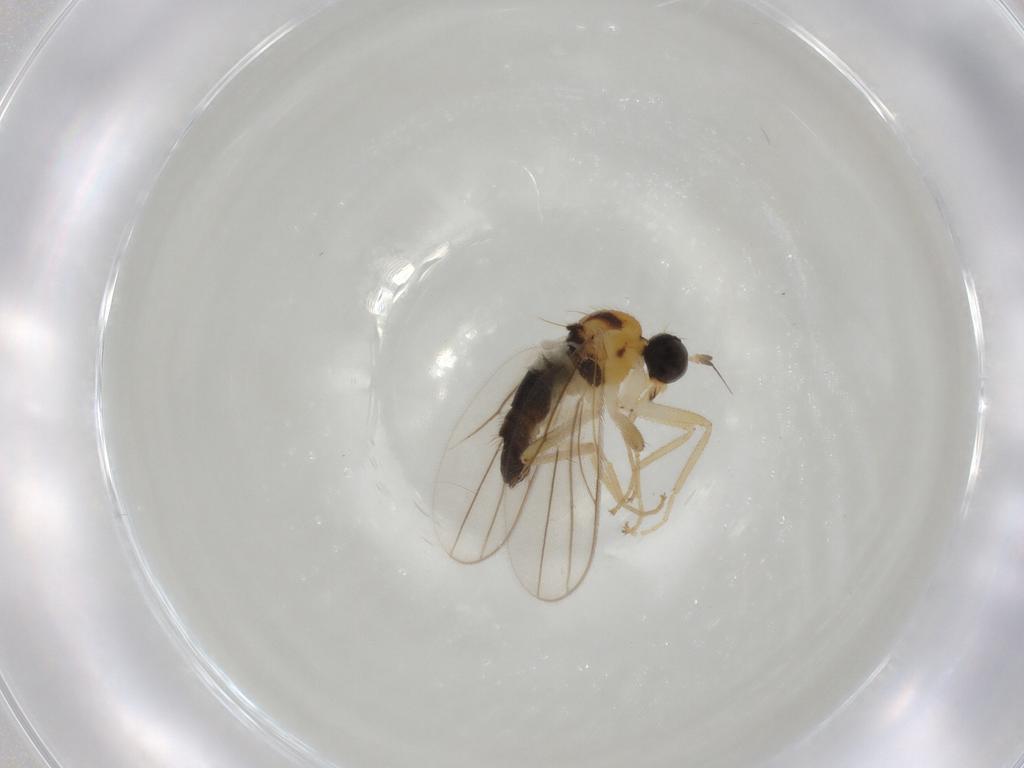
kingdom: Animalia
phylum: Arthropoda
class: Insecta
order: Diptera
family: Hybotidae
